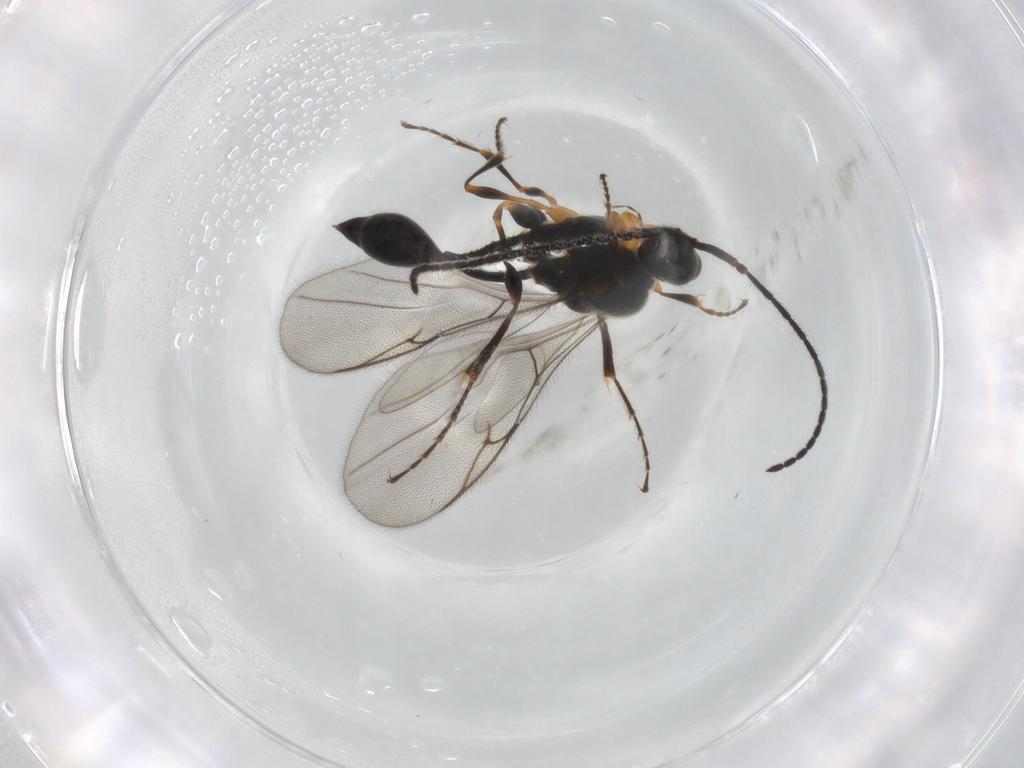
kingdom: Animalia
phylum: Arthropoda
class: Insecta
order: Hymenoptera
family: Diapriidae
